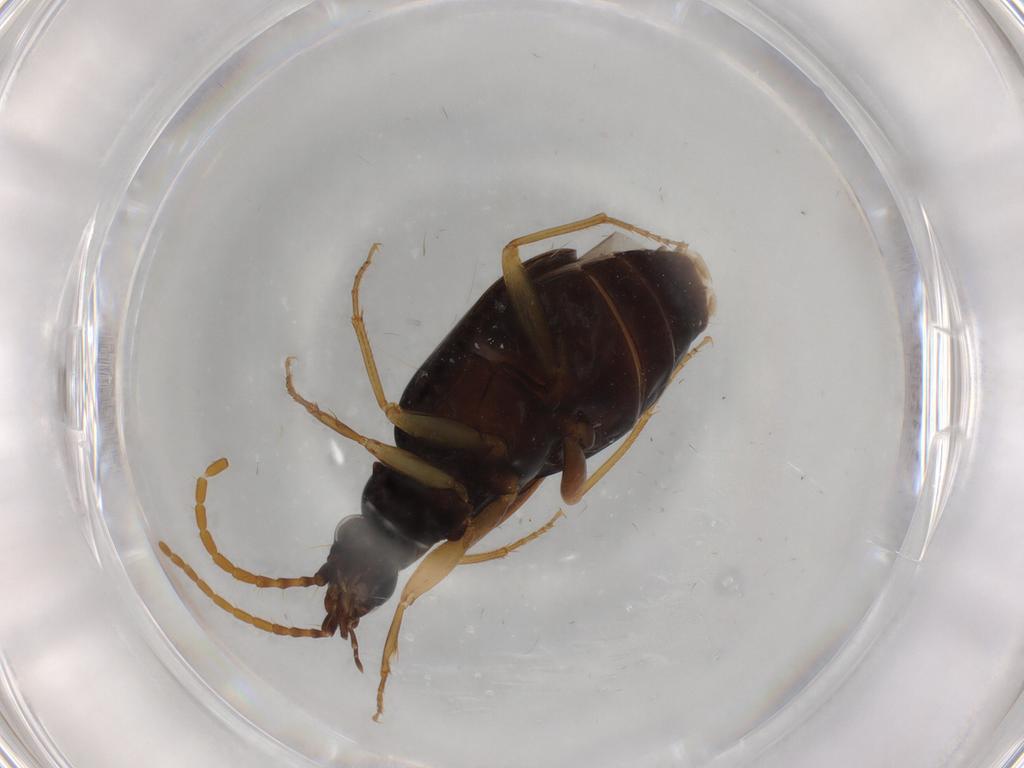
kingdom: Animalia
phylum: Arthropoda
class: Insecta
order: Coleoptera
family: Carabidae
